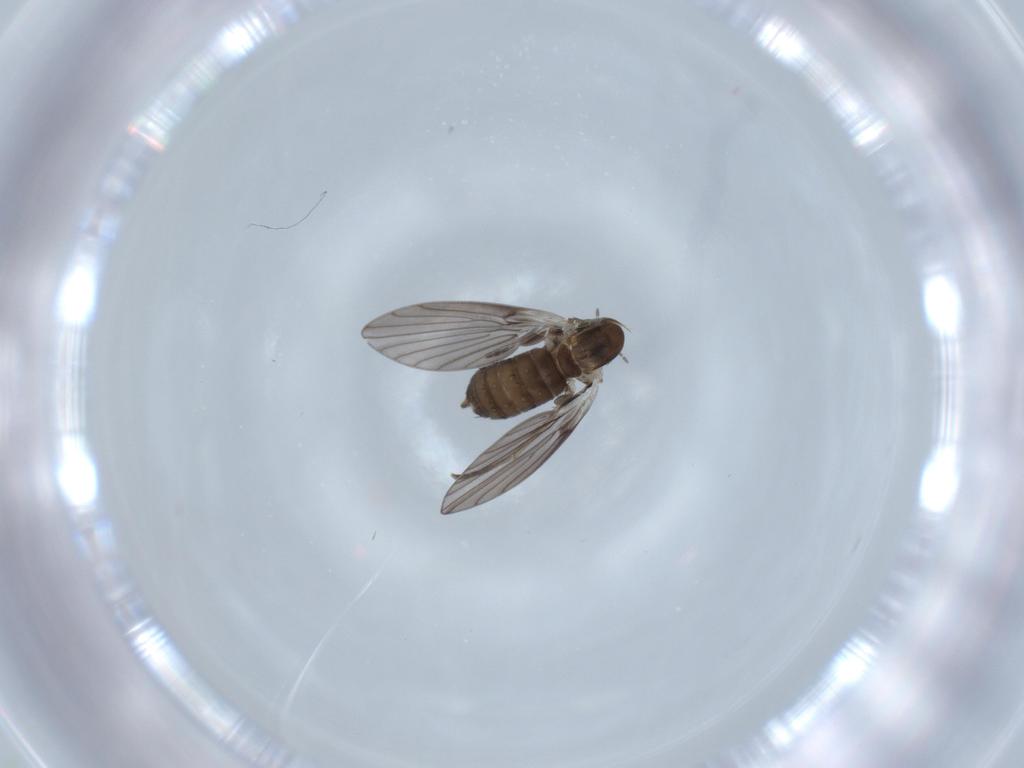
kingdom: Animalia
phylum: Arthropoda
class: Insecta
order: Diptera
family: Psychodidae
